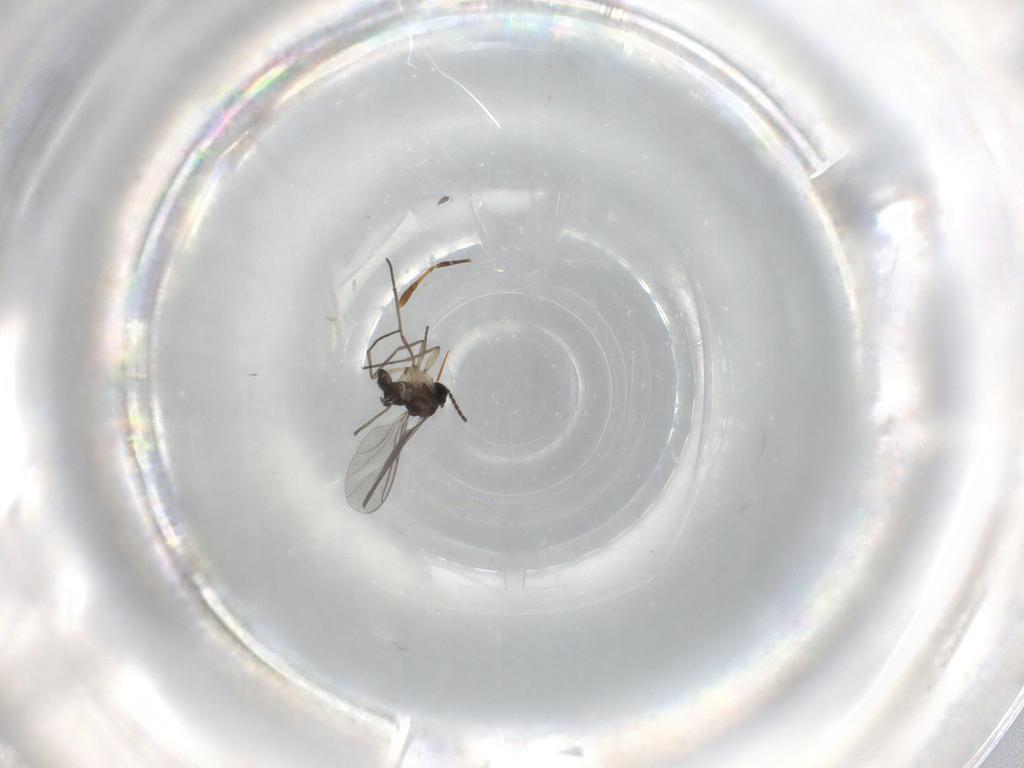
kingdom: Animalia
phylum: Arthropoda
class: Insecta
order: Diptera
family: Sciaridae
